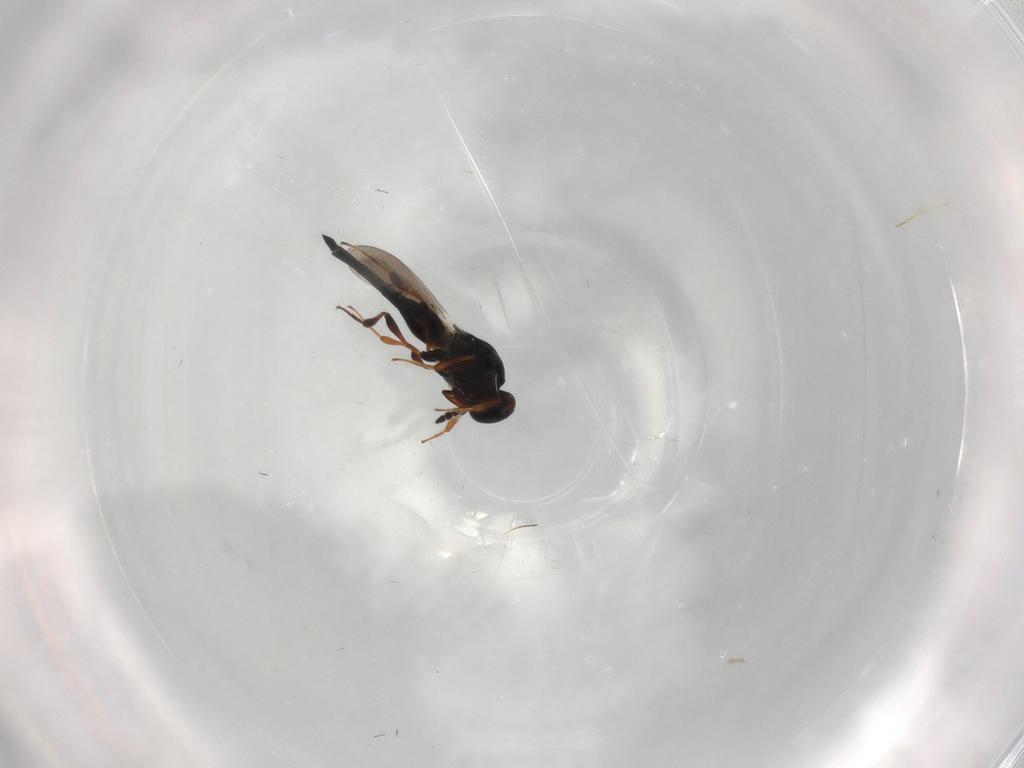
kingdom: Animalia
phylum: Arthropoda
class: Insecta
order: Hymenoptera
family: Platygastridae
